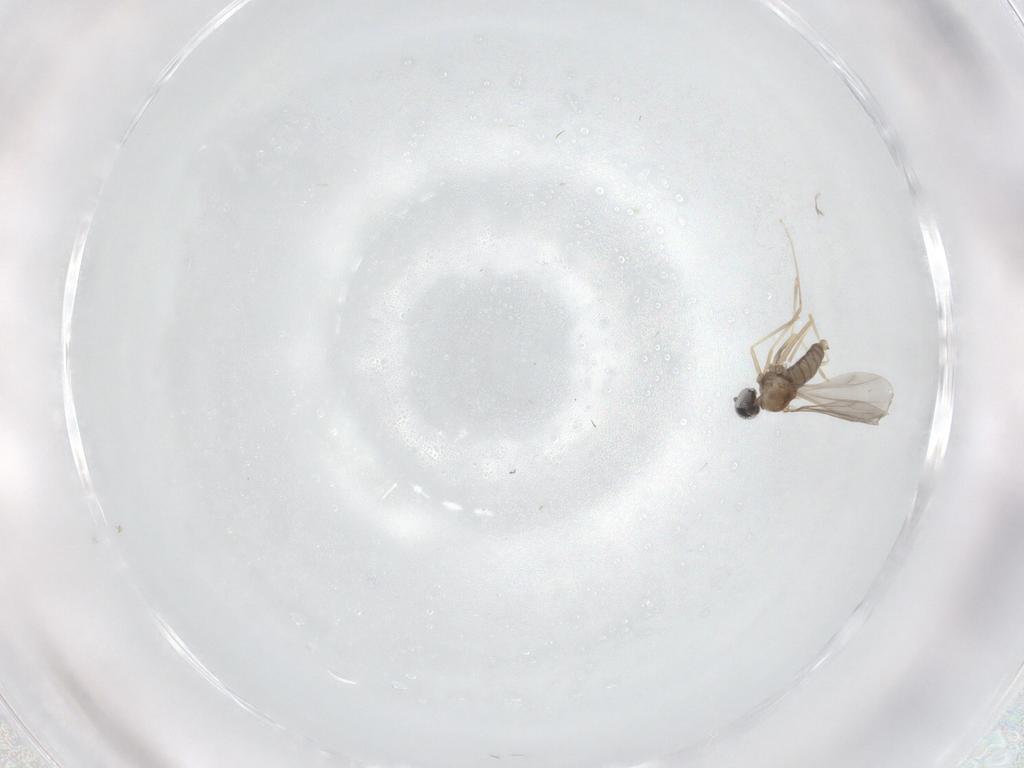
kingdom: Animalia
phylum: Arthropoda
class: Insecta
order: Diptera
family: Cecidomyiidae
